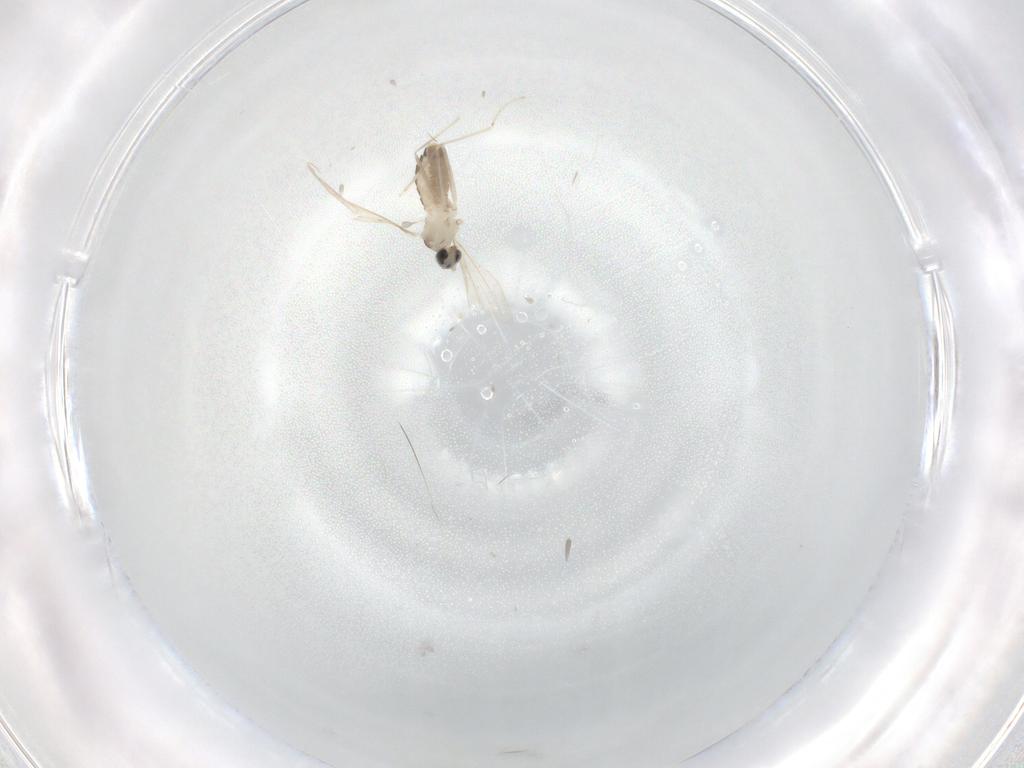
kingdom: Animalia
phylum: Arthropoda
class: Insecta
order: Diptera
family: Cecidomyiidae
